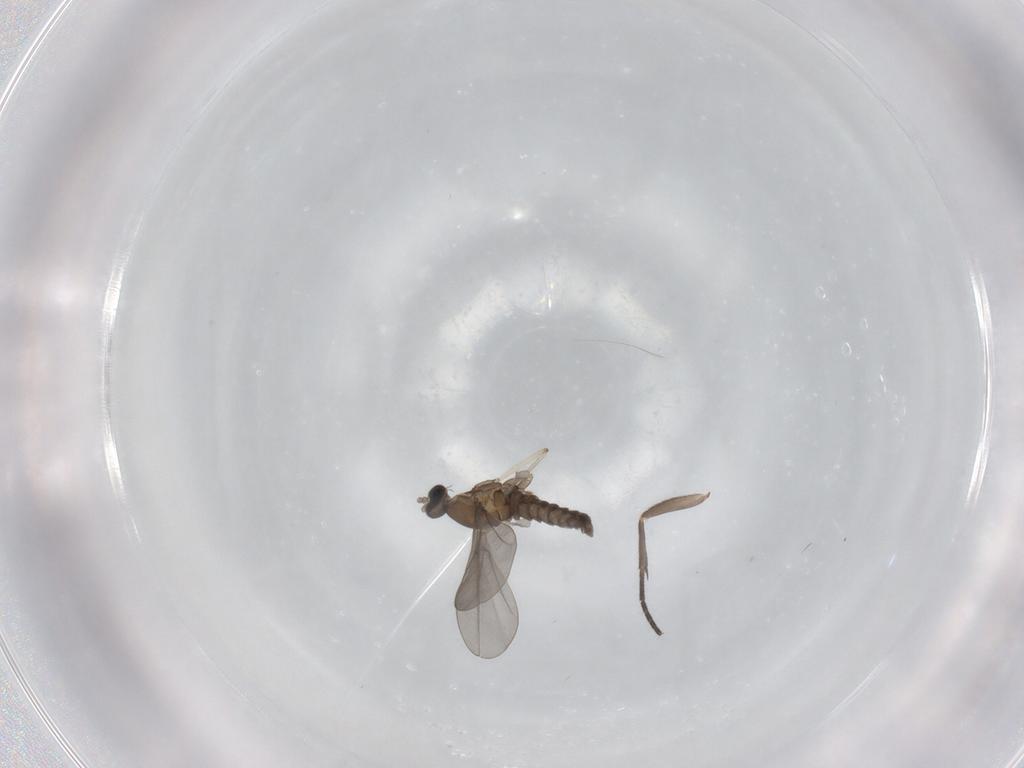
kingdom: Animalia
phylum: Arthropoda
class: Insecta
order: Diptera
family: Cecidomyiidae
